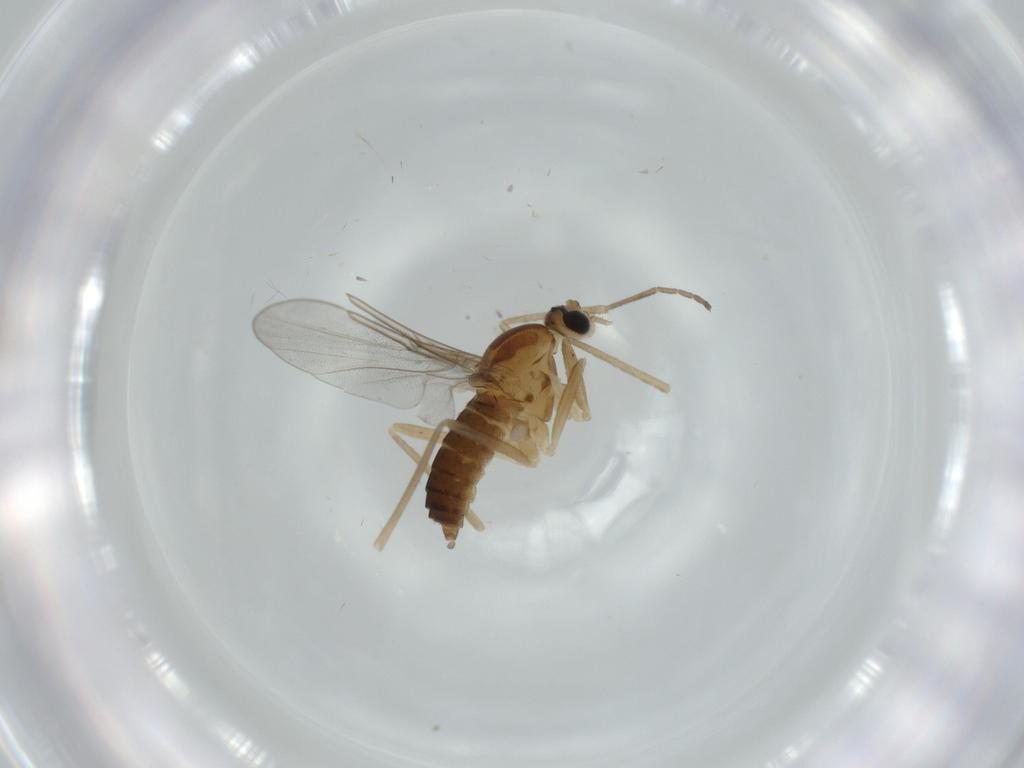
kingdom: Animalia
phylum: Arthropoda
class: Insecta
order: Diptera
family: Cecidomyiidae
